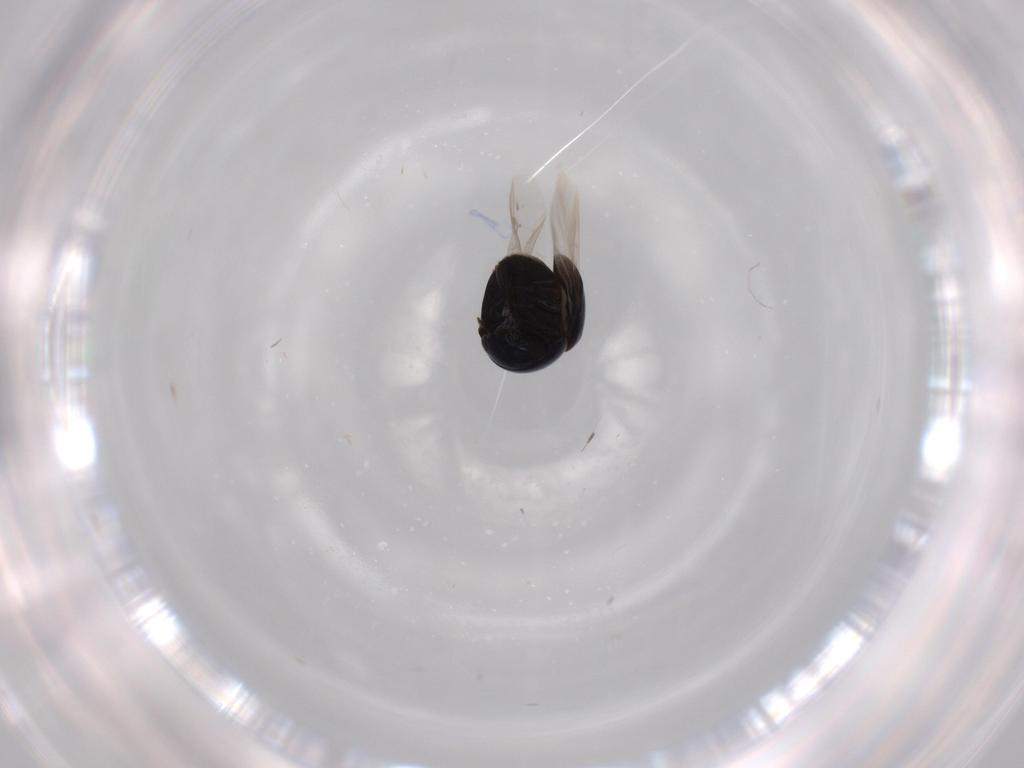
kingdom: Animalia
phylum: Arthropoda
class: Insecta
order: Coleoptera
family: Cybocephalidae
